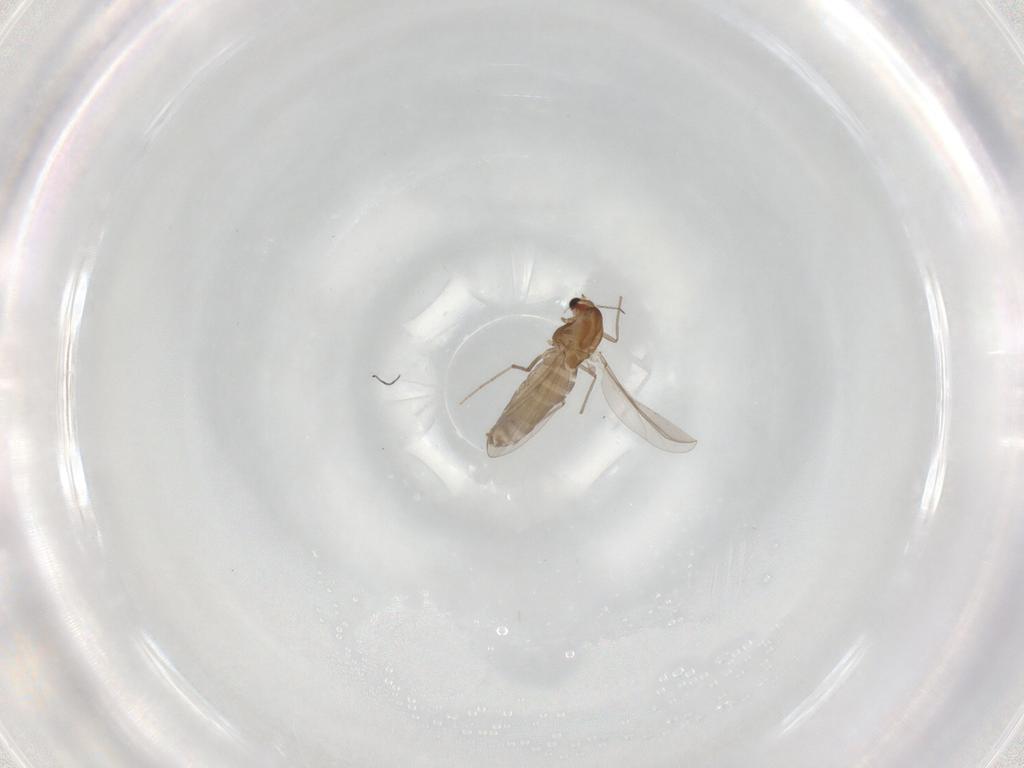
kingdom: Animalia
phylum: Arthropoda
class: Insecta
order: Diptera
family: Chironomidae
